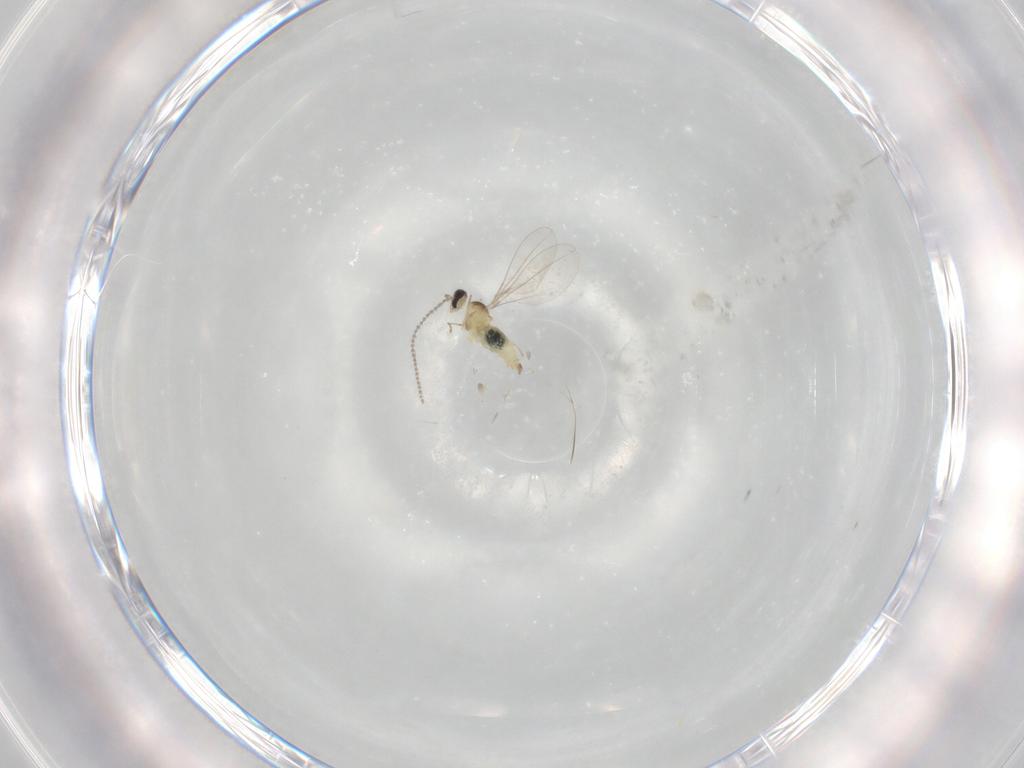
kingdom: Animalia
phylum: Arthropoda
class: Insecta
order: Diptera
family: Cecidomyiidae
